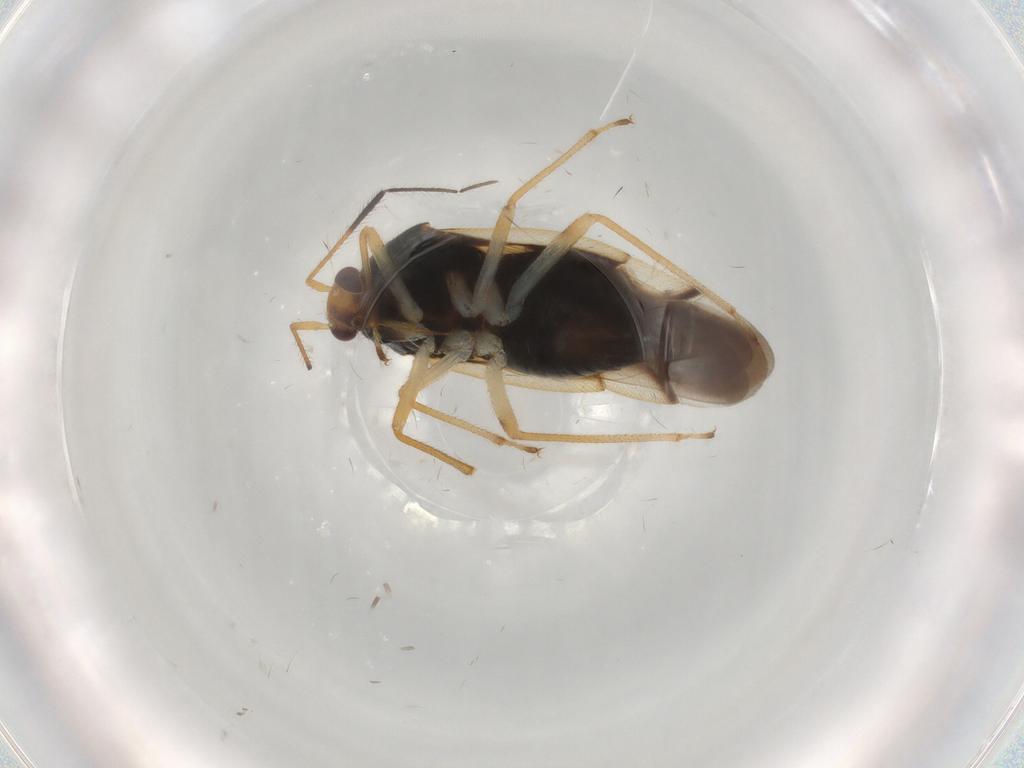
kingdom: Animalia
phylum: Arthropoda
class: Insecta
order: Hemiptera
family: Miridae
